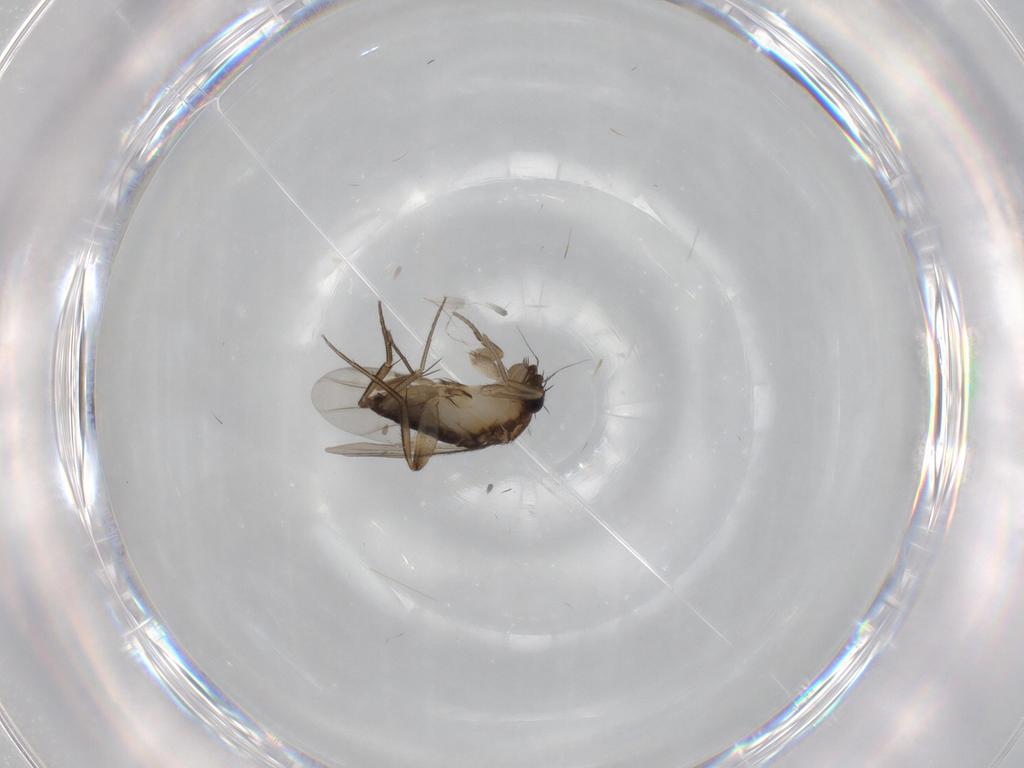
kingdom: Animalia
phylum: Arthropoda
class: Insecta
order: Diptera
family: Phoridae
